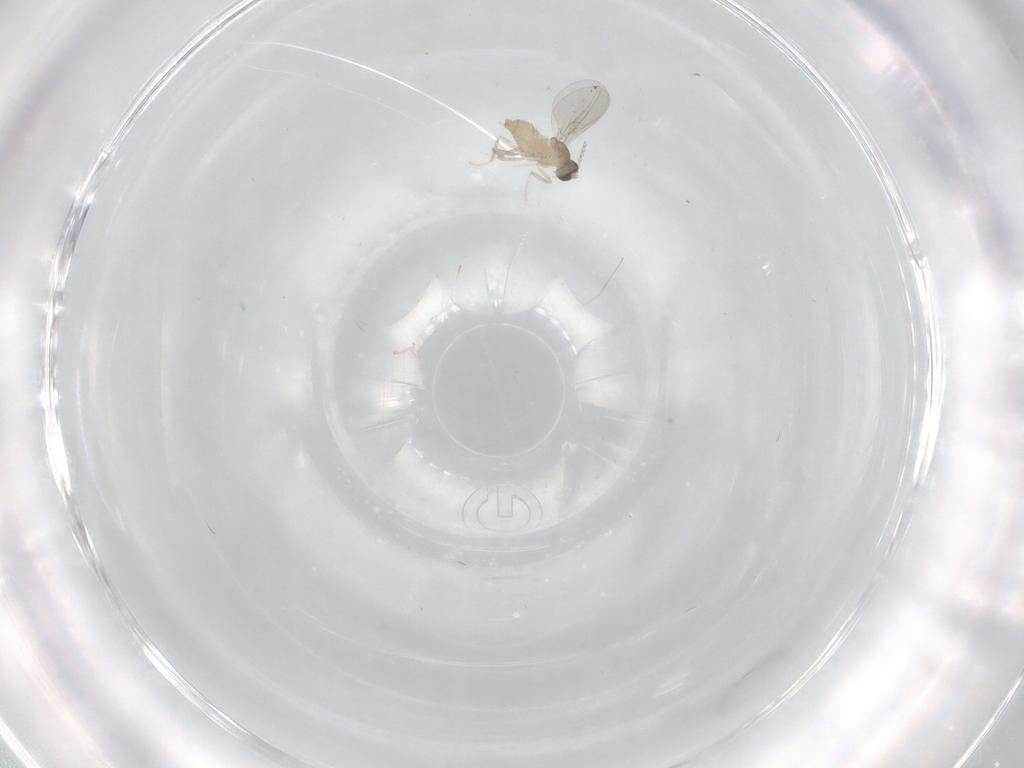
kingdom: Animalia
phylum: Arthropoda
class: Insecta
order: Diptera
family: Cecidomyiidae
